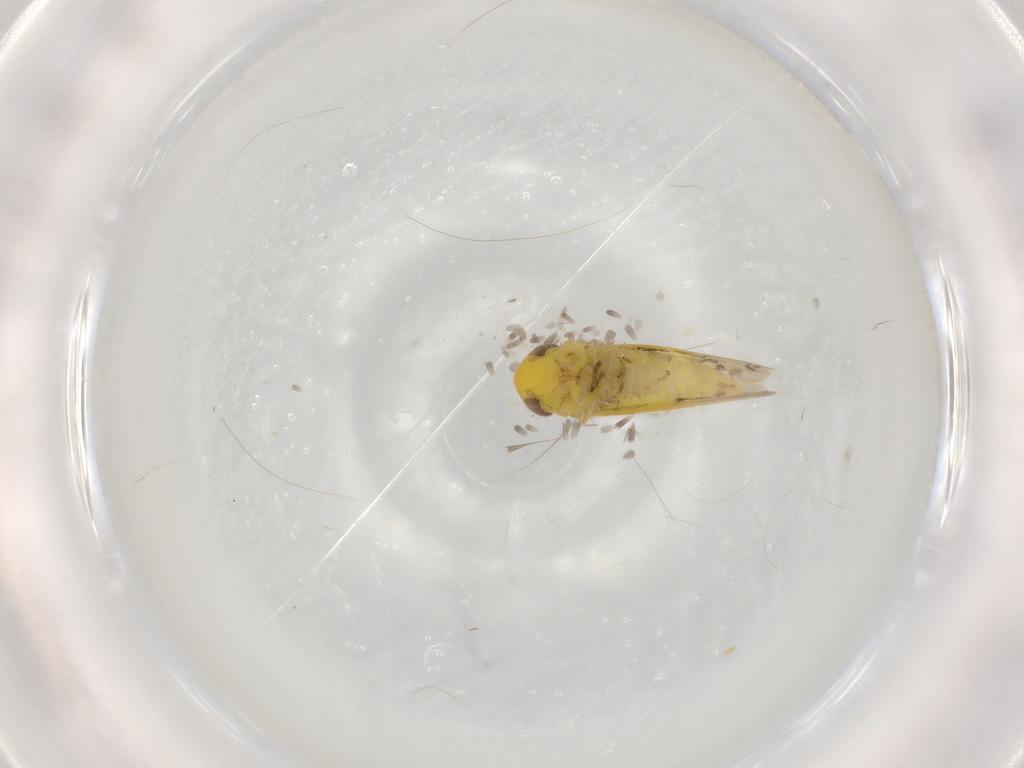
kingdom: Animalia
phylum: Arthropoda
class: Insecta
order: Hemiptera
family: Cicadellidae
